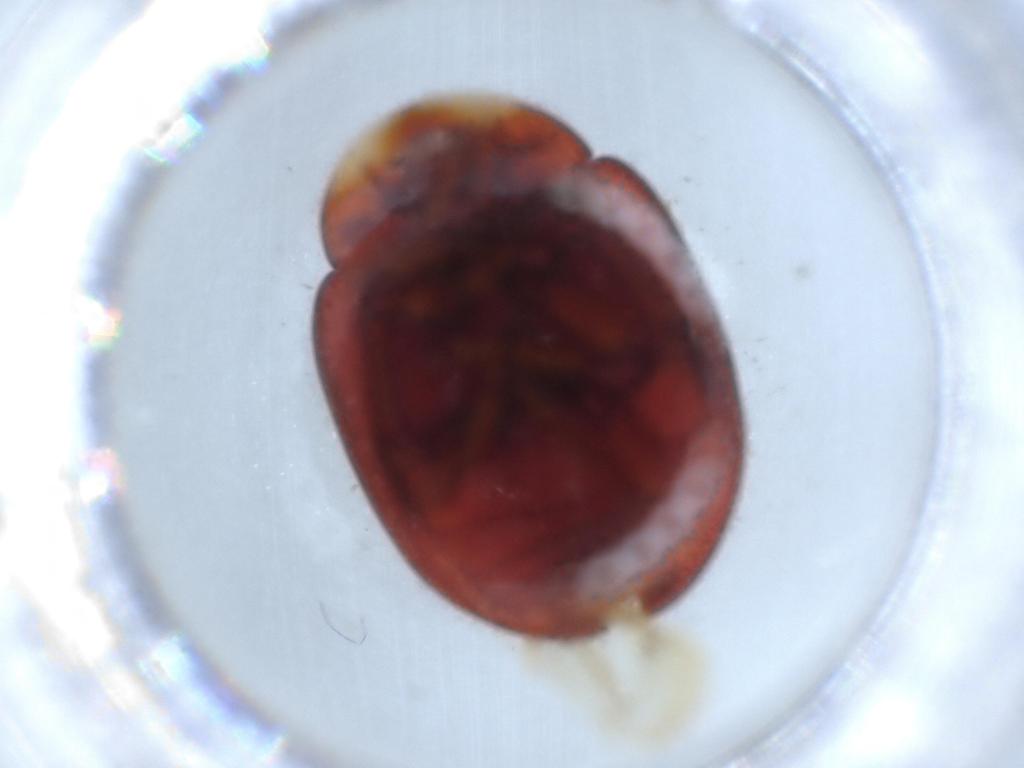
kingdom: Animalia
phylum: Arthropoda
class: Insecta
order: Coleoptera
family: Coccinellidae
